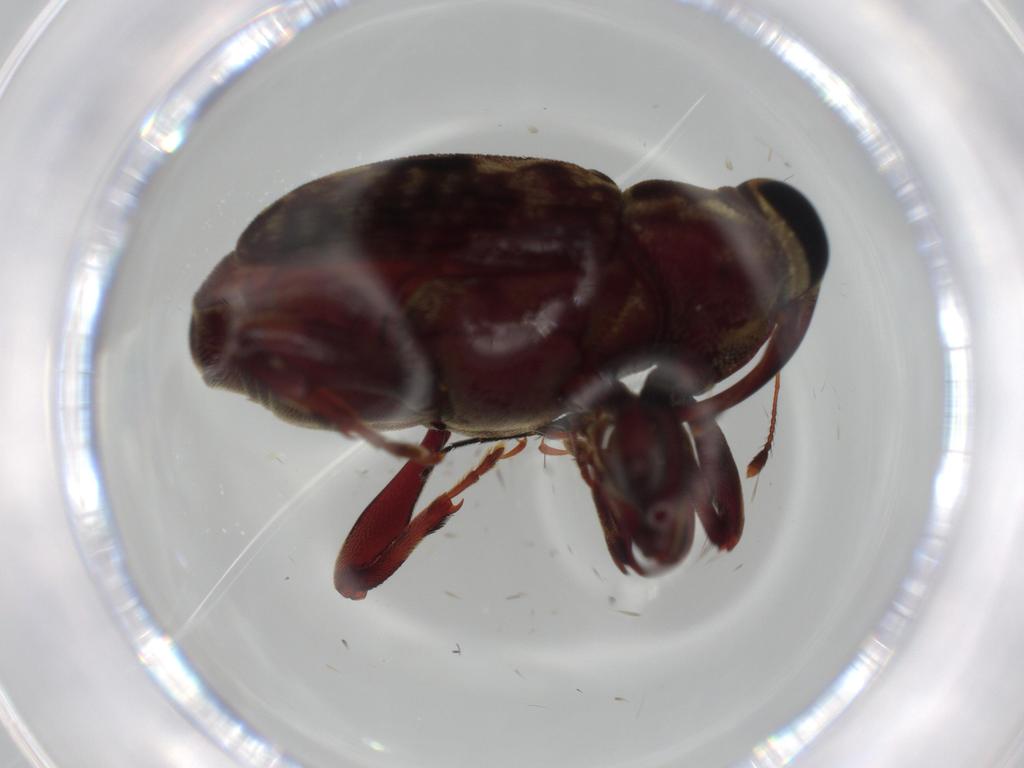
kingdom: Animalia
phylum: Arthropoda
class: Insecta
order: Coleoptera
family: Curculionidae
